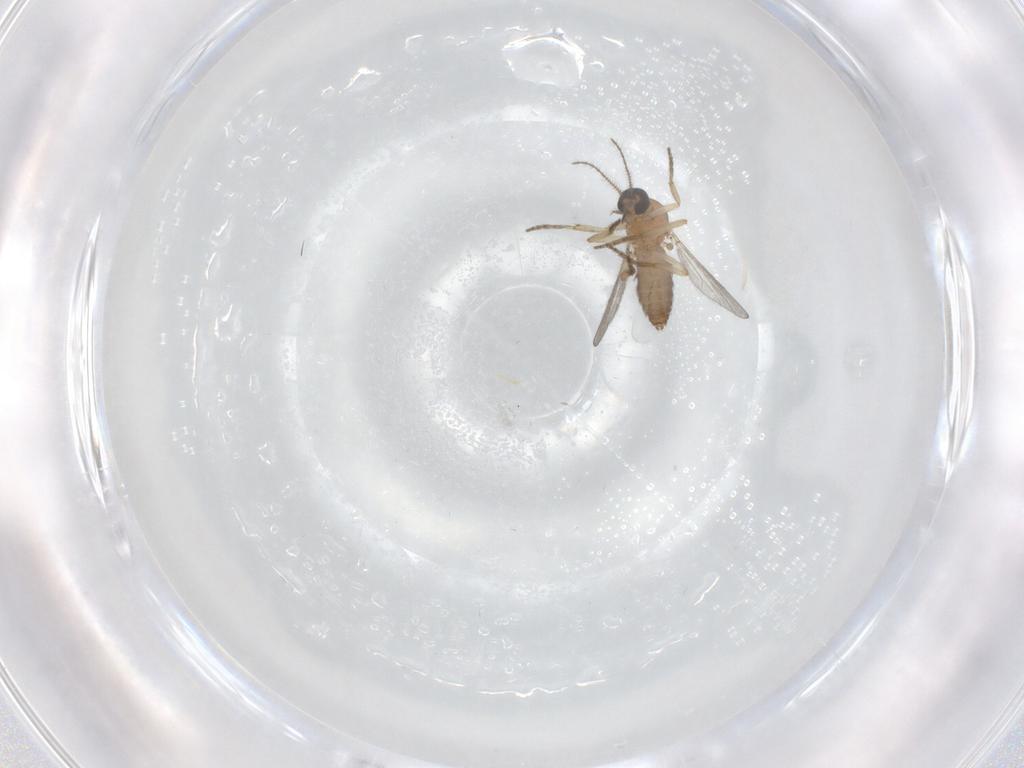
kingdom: Animalia
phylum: Arthropoda
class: Insecta
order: Diptera
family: Ceratopogonidae
